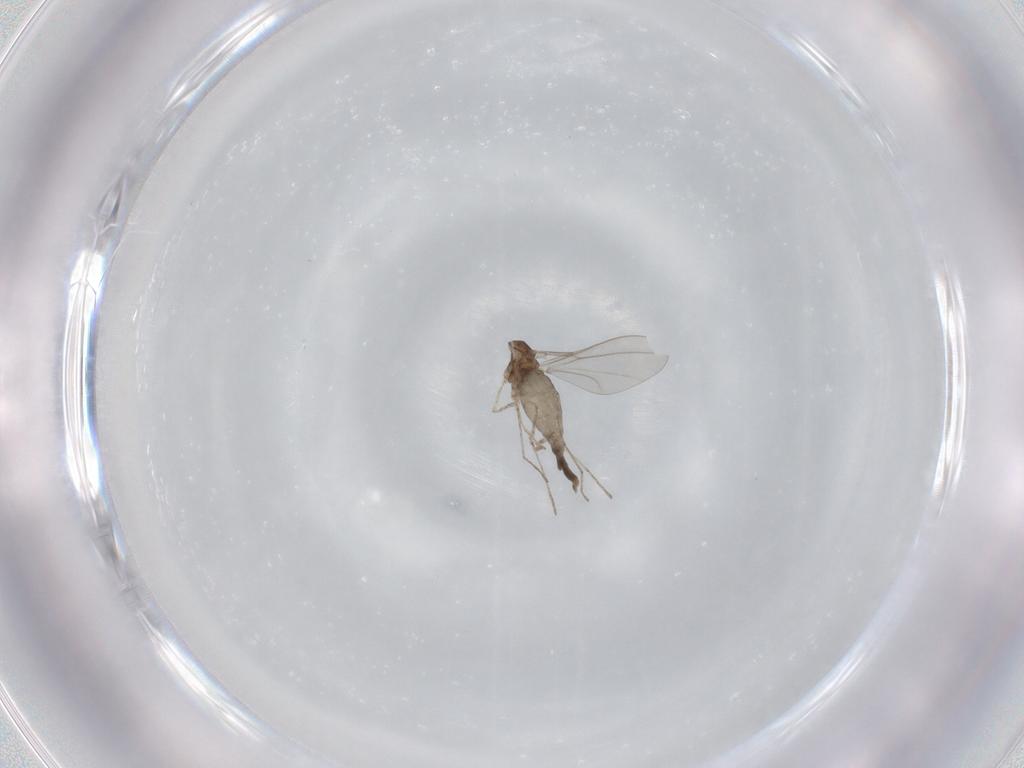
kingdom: Animalia
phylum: Arthropoda
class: Insecta
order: Diptera
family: Cecidomyiidae
